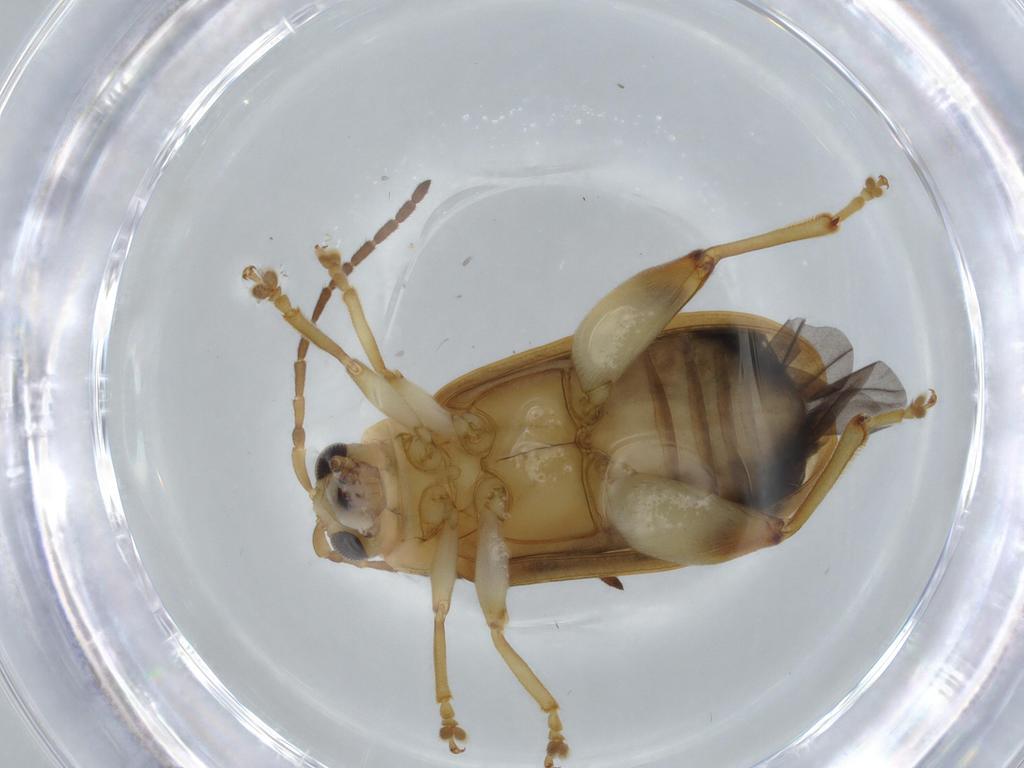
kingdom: Animalia
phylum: Arthropoda
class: Insecta
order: Coleoptera
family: Chrysomelidae
